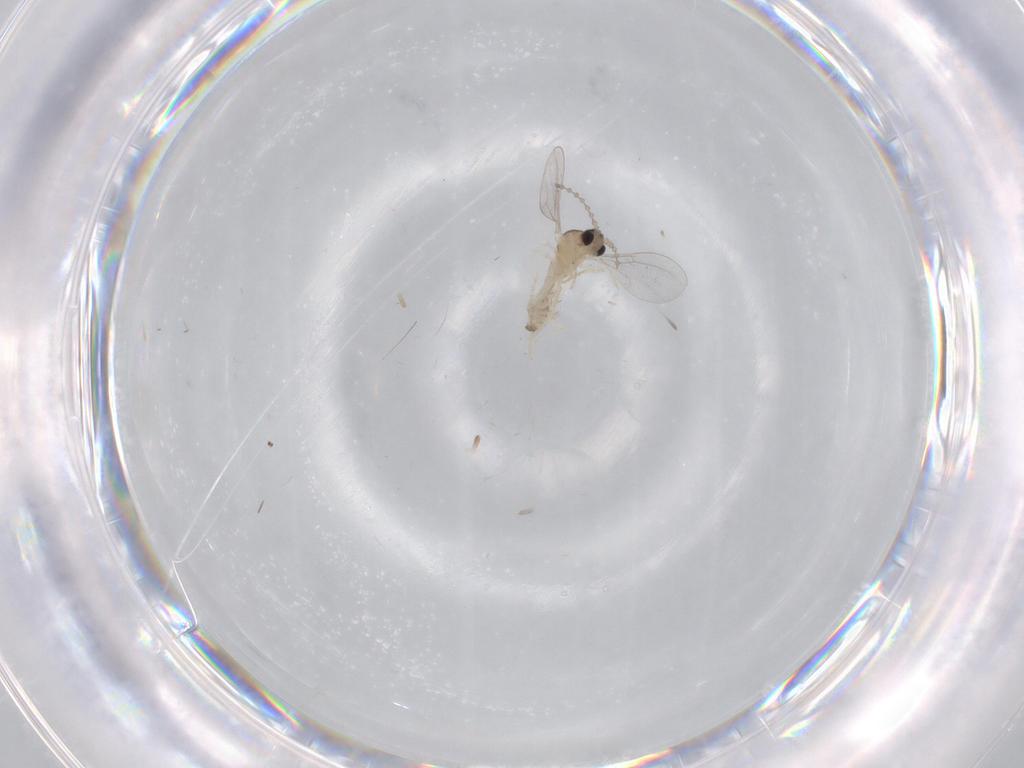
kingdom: Animalia
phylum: Arthropoda
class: Insecta
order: Diptera
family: Cecidomyiidae
